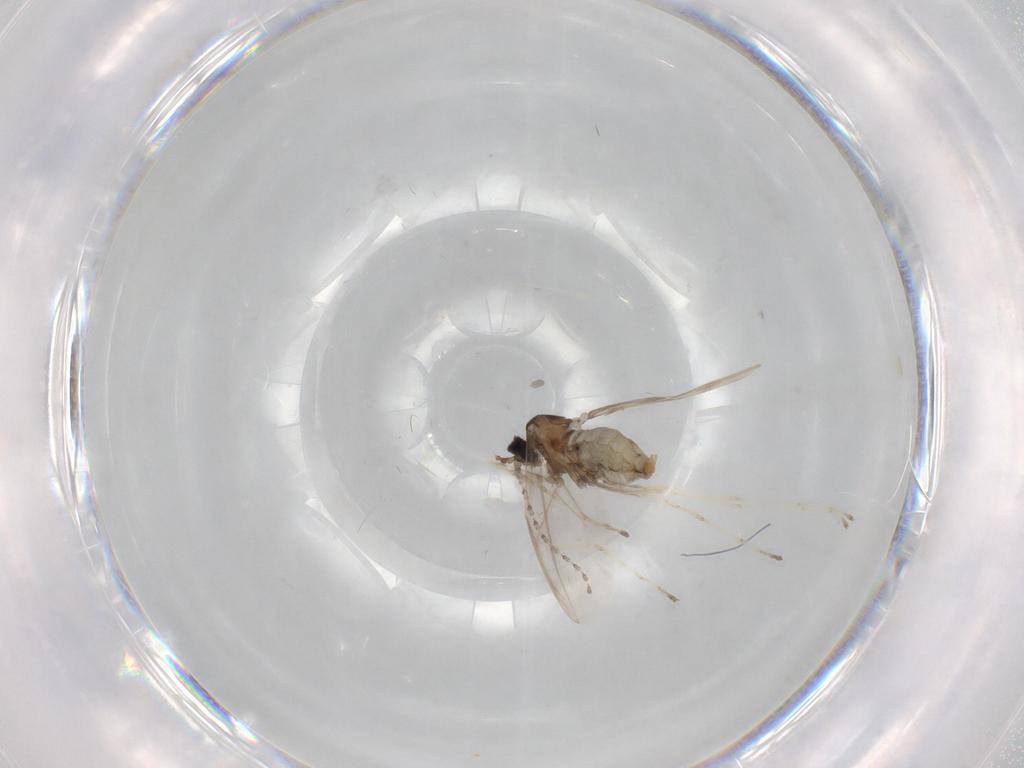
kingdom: Animalia
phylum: Arthropoda
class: Insecta
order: Diptera
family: Cecidomyiidae
